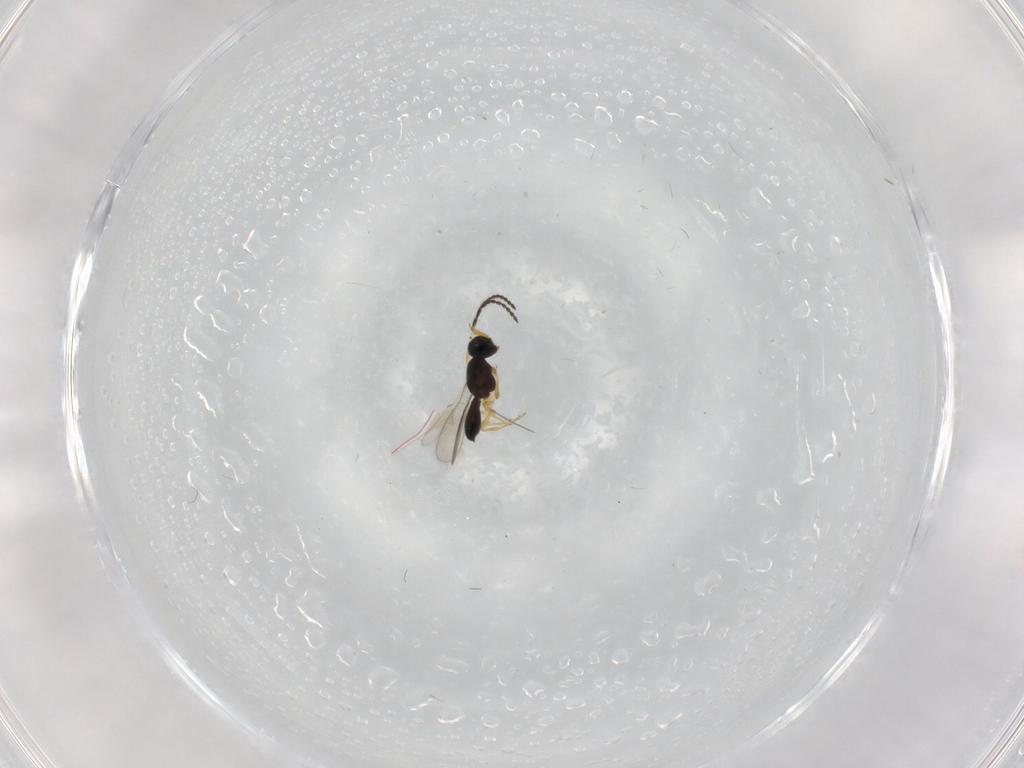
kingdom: Animalia
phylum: Arthropoda
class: Insecta
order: Hymenoptera
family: Scelionidae
